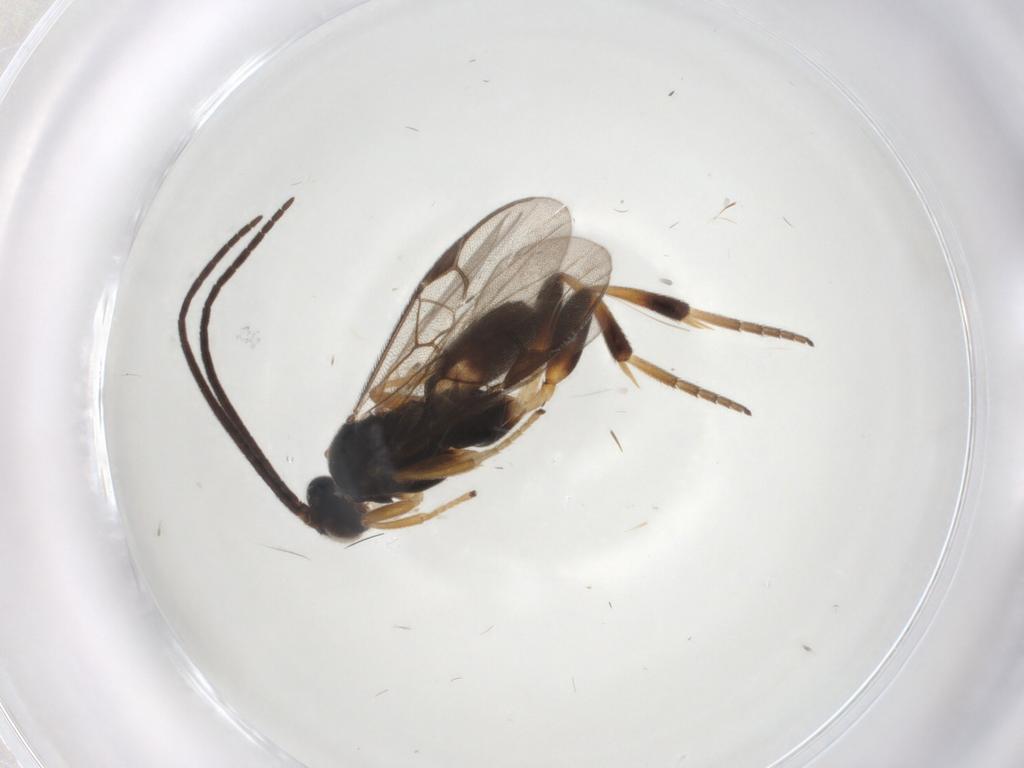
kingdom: Animalia
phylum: Arthropoda
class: Insecta
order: Hymenoptera
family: Braconidae
